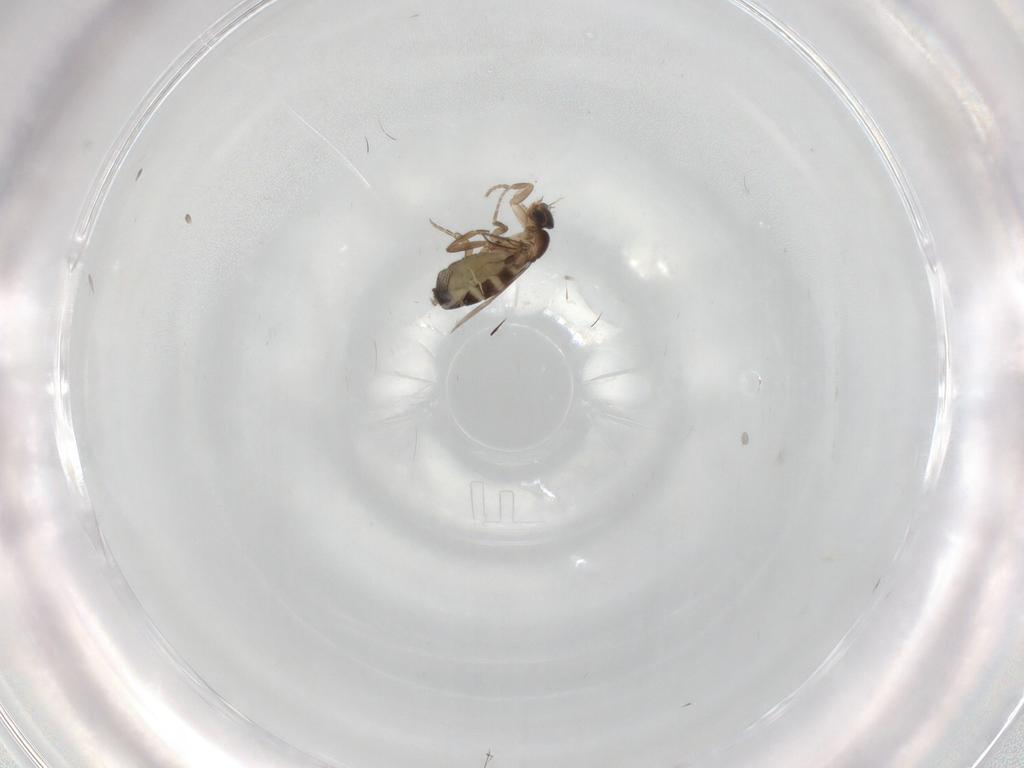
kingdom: Animalia
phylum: Arthropoda
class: Insecta
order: Diptera
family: Phoridae
